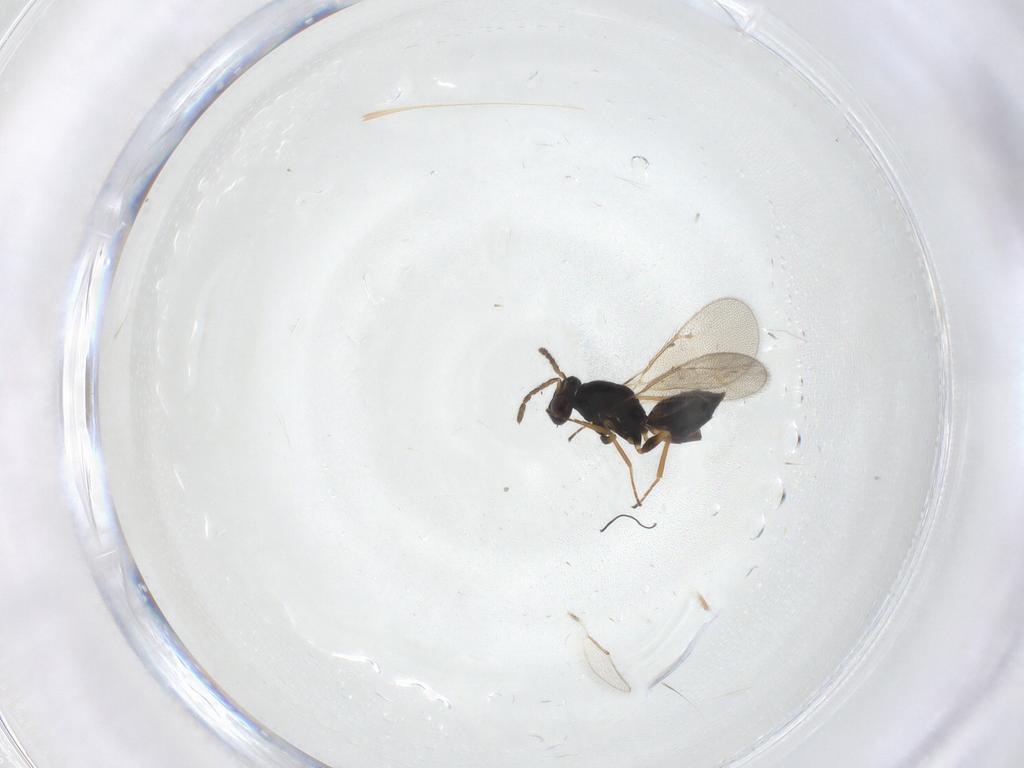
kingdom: Animalia
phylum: Arthropoda
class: Insecta
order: Hymenoptera
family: Eulophidae
